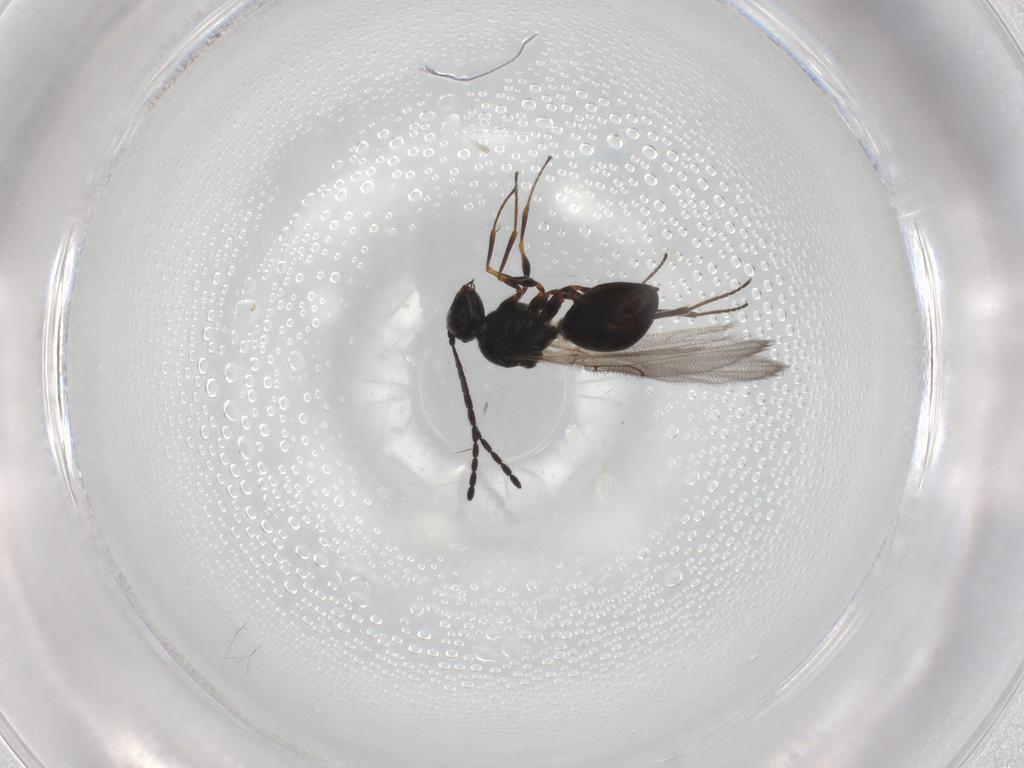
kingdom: Animalia
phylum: Arthropoda
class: Insecta
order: Hymenoptera
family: Figitidae
